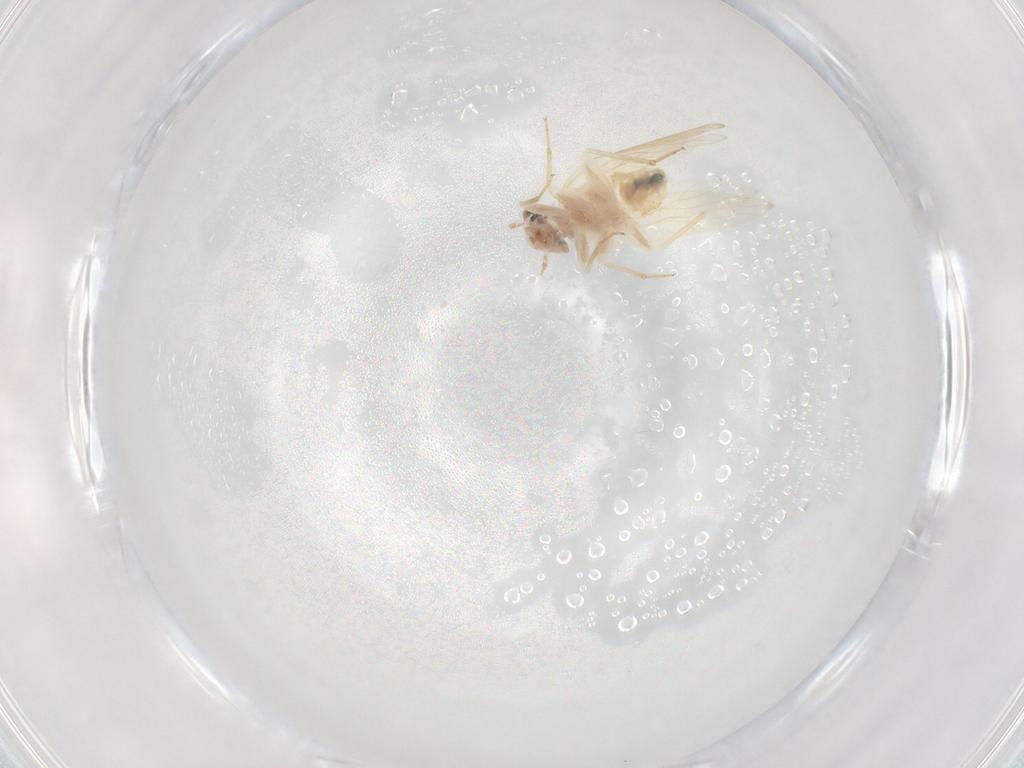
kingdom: Animalia
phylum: Arthropoda
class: Insecta
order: Psocodea
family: Lepidopsocidae
